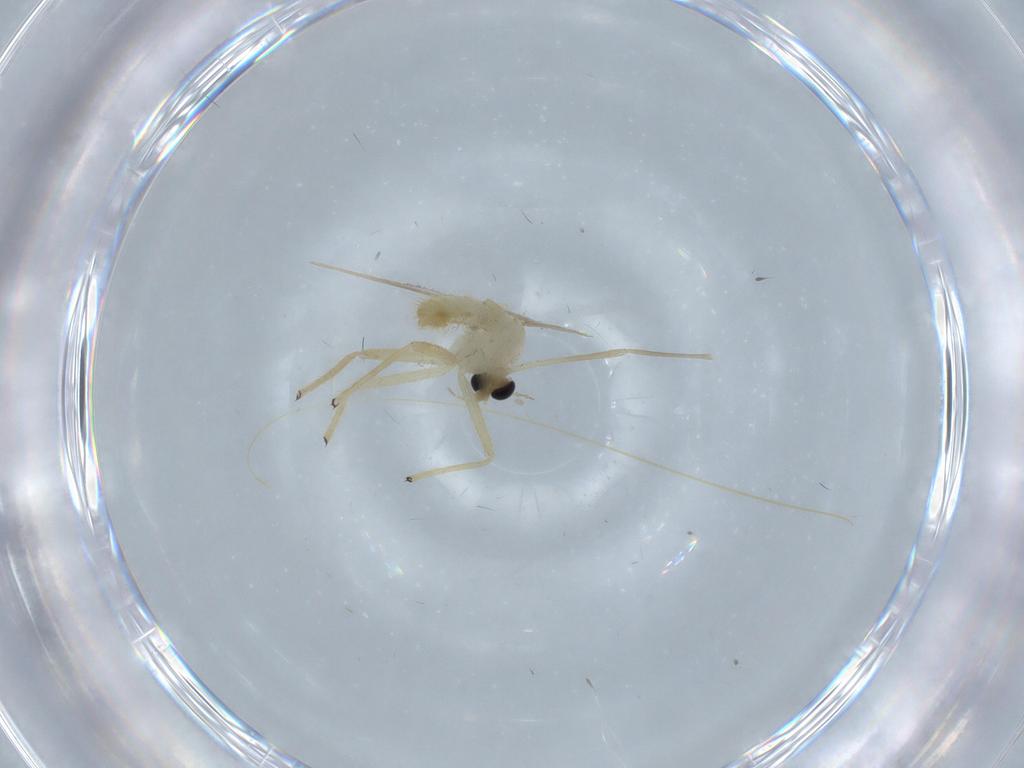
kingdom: Animalia
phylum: Arthropoda
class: Insecta
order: Diptera
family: Chironomidae
